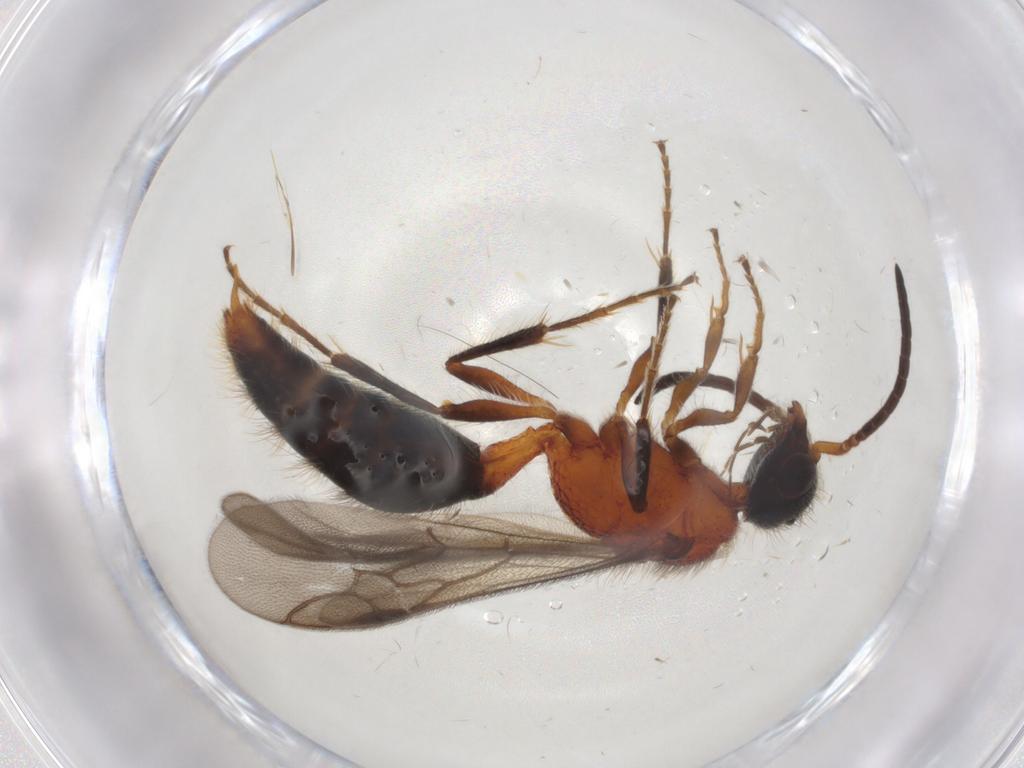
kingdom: Animalia
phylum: Arthropoda
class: Insecta
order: Hymenoptera
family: Mutillidae
